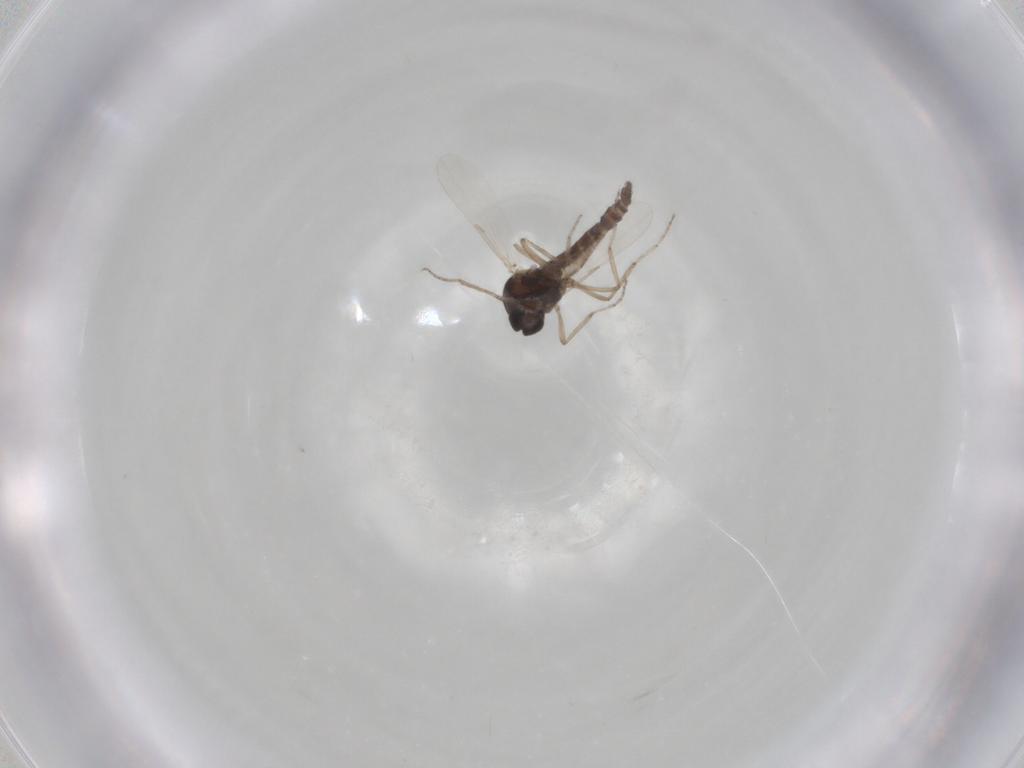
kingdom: Animalia
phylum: Arthropoda
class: Insecta
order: Diptera
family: Ceratopogonidae
